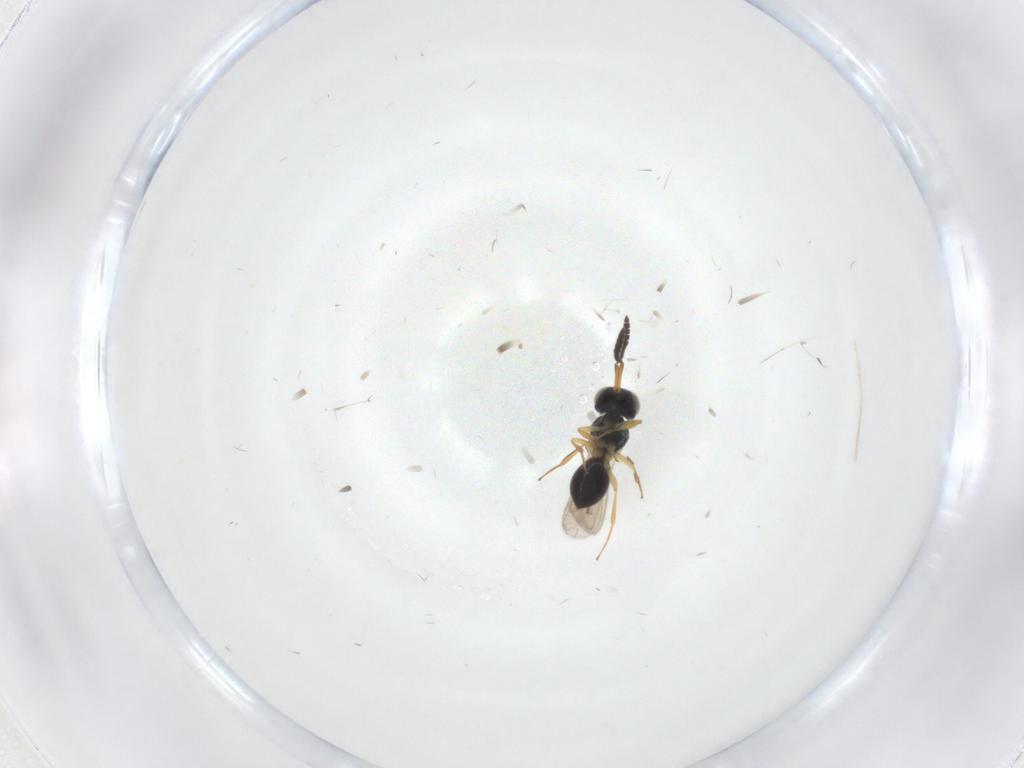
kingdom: Animalia
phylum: Arthropoda
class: Insecta
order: Hymenoptera
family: Scelionidae
